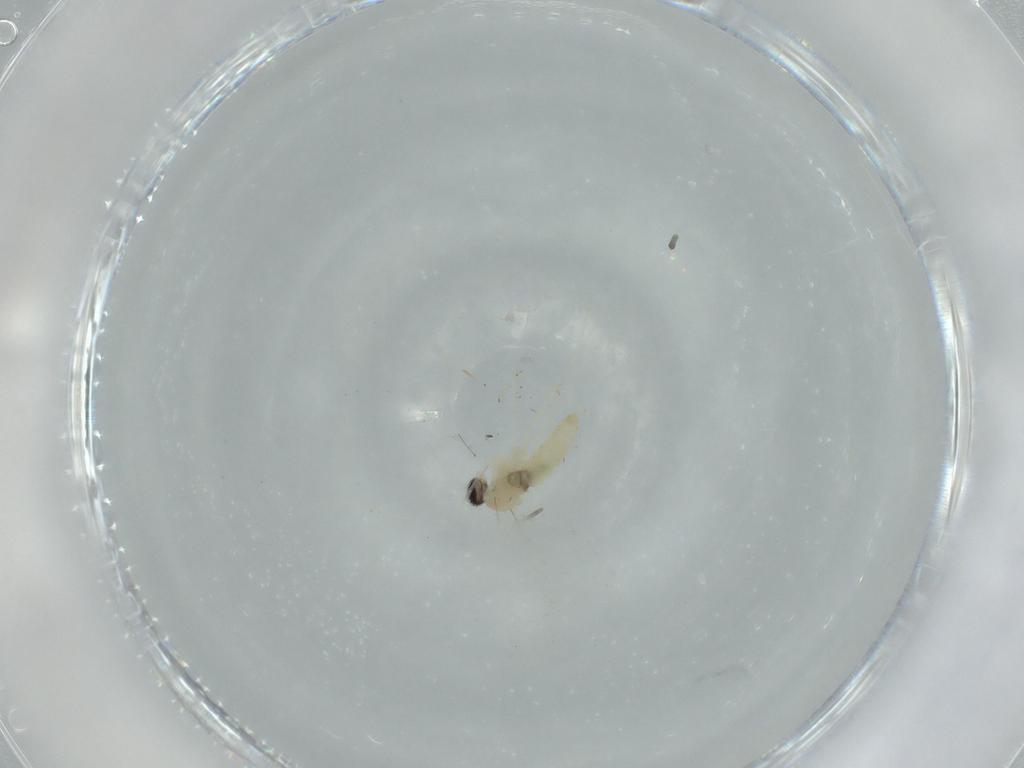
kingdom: Animalia
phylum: Arthropoda
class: Insecta
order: Diptera
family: Cecidomyiidae
